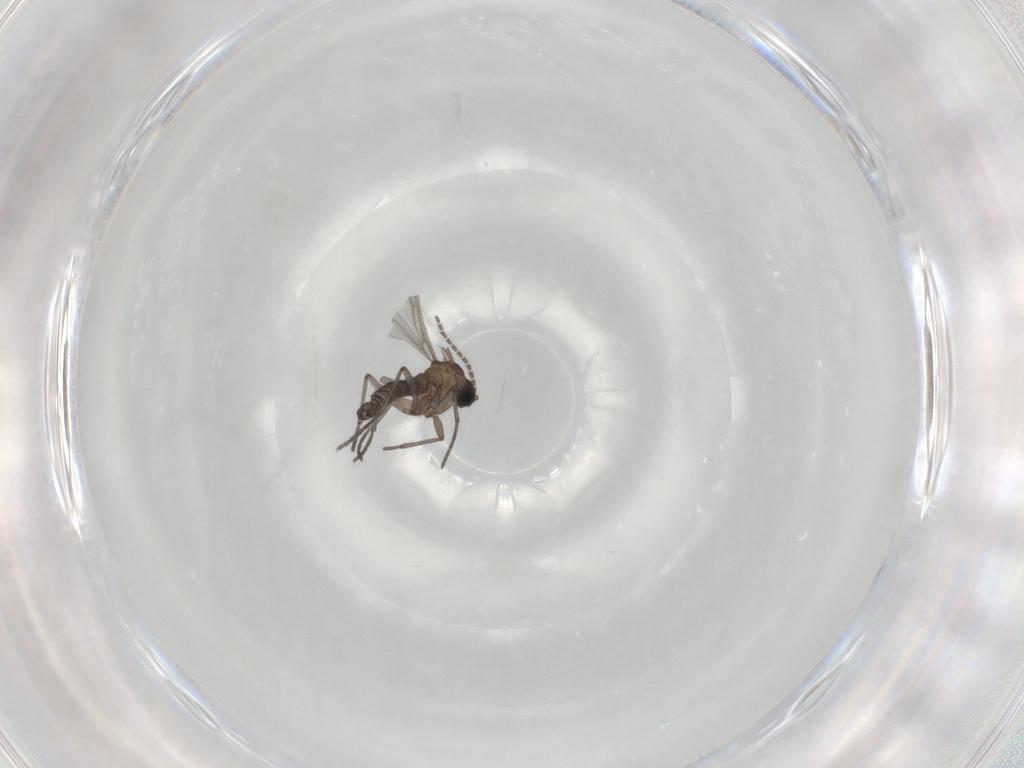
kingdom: Animalia
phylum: Arthropoda
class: Insecta
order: Diptera
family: Sciaridae
